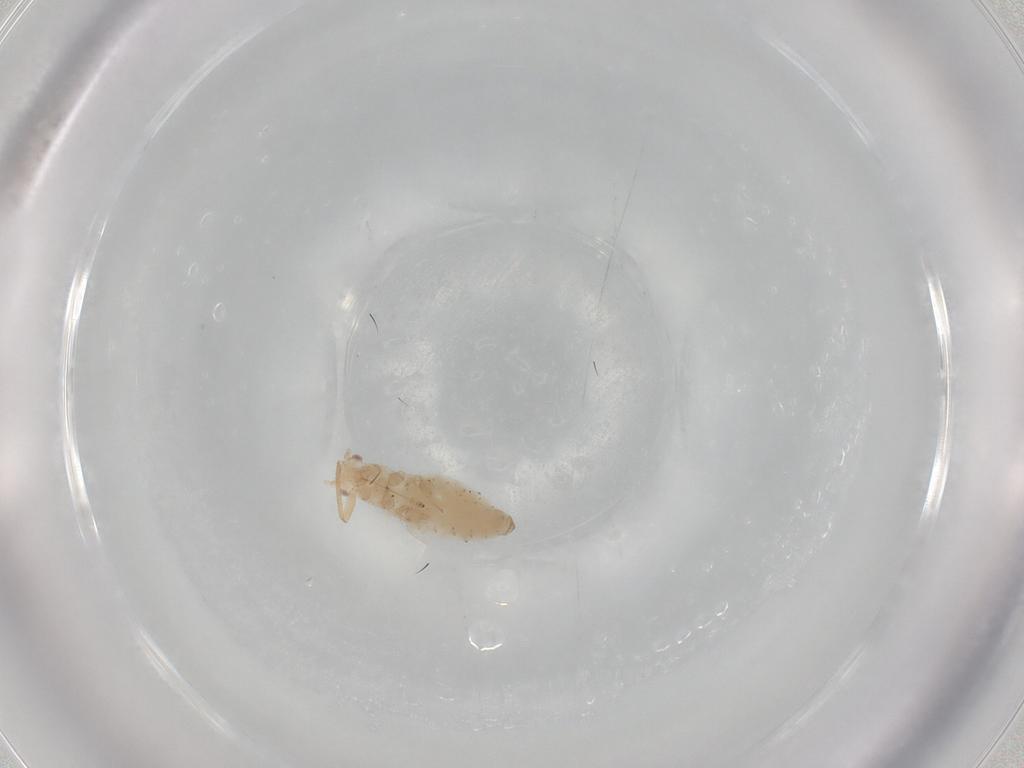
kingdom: Animalia
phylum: Arthropoda
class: Insecta
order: Hemiptera
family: Aphididae
